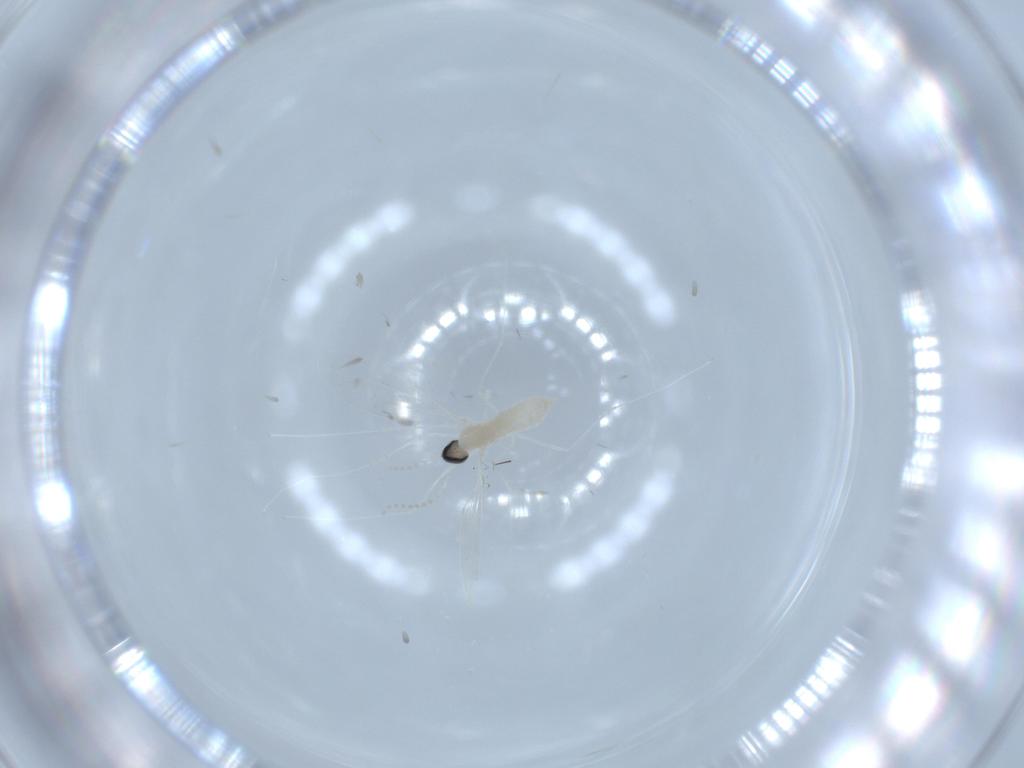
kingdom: Animalia
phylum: Arthropoda
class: Insecta
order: Diptera
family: Cecidomyiidae
